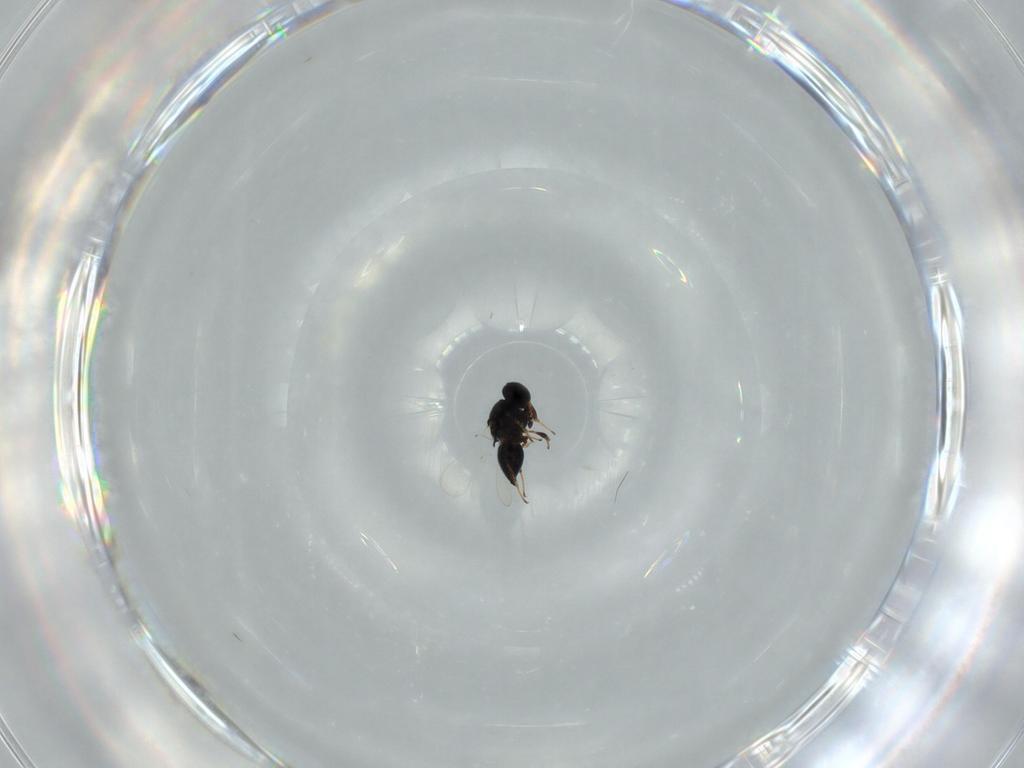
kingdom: Animalia
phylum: Arthropoda
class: Insecta
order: Hymenoptera
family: Platygastridae
